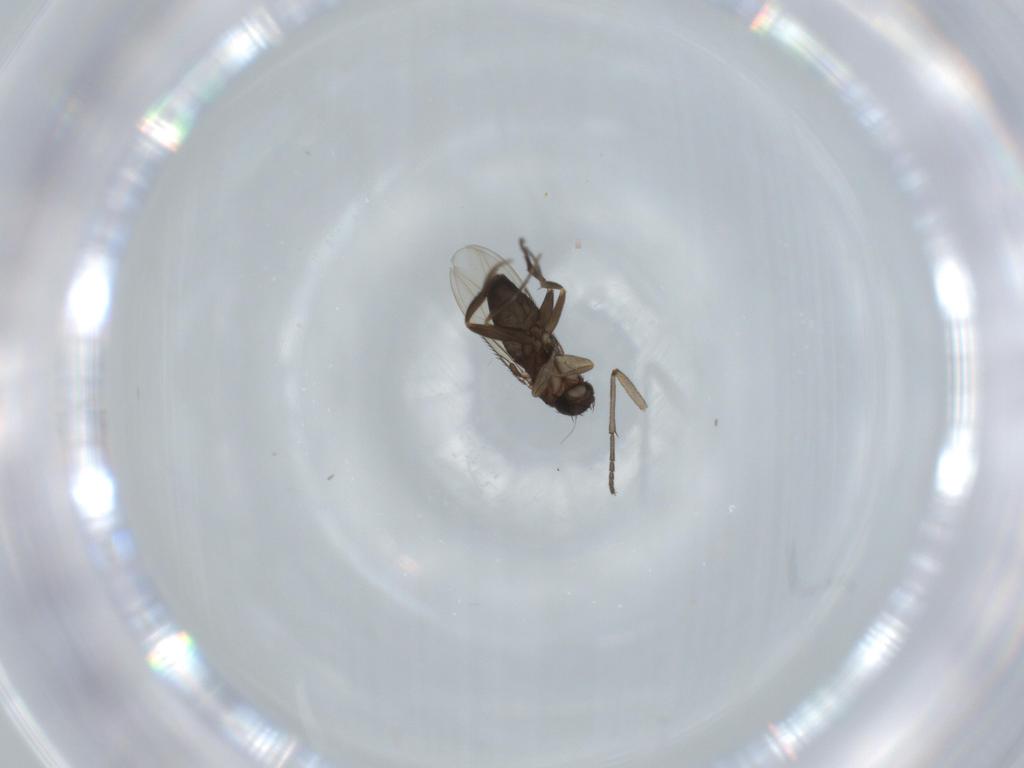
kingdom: Animalia
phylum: Arthropoda
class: Insecta
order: Diptera
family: Phoridae
